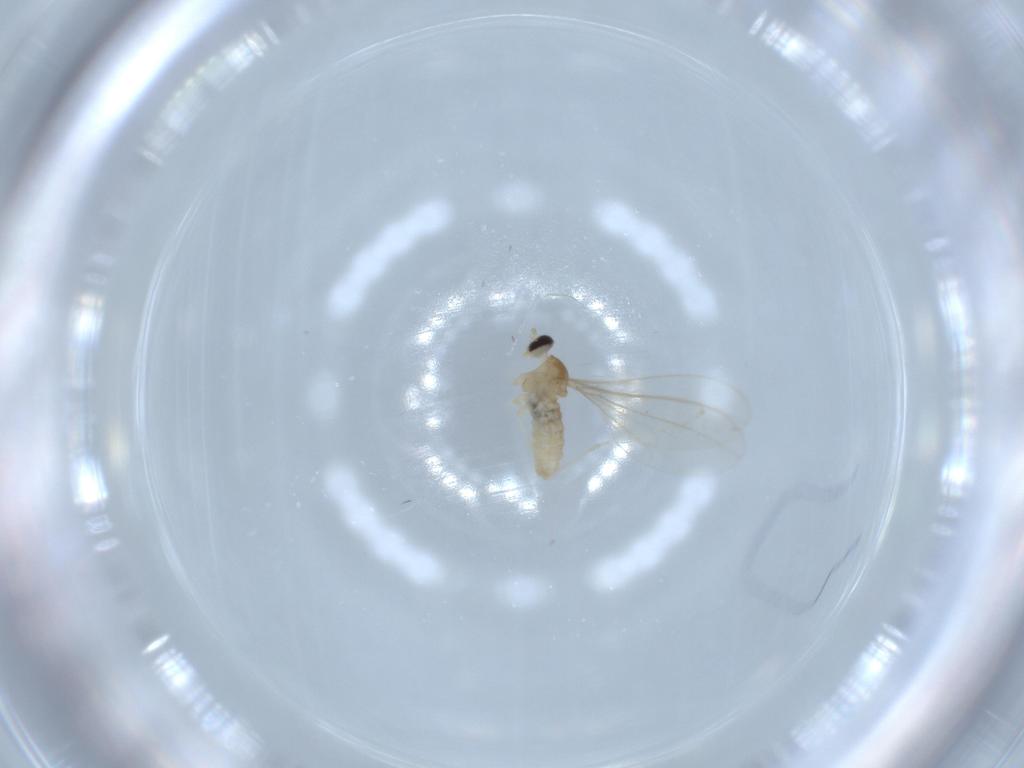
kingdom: Animalia
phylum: Arthropoda
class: Insecta
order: Diptera
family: Cecidomyiidae
